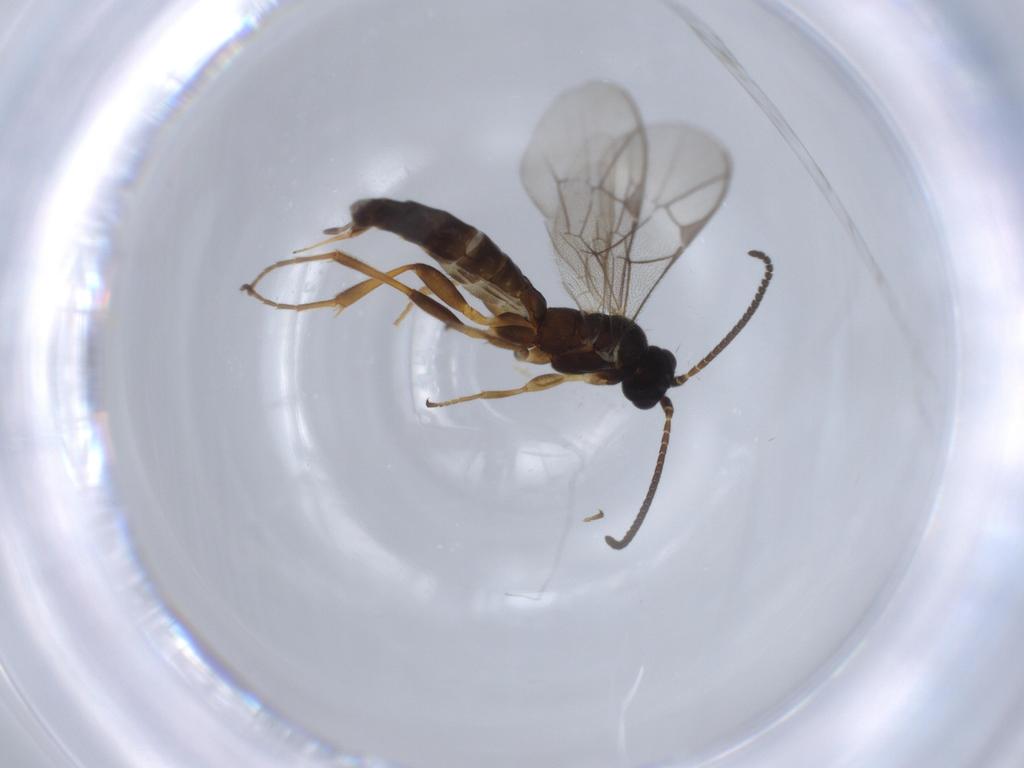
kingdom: Animalia
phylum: Arthropoda
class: Insecta
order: Hymenoptera
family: Ichneumonidae
